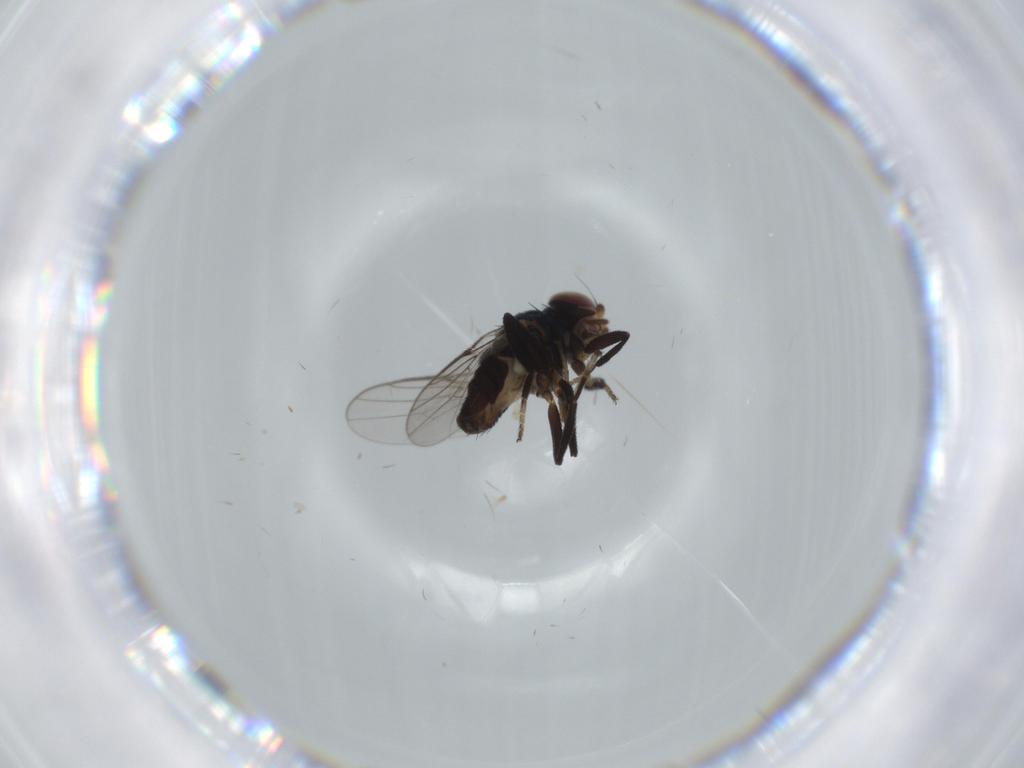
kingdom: Animalia
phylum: Arthropoda
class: Insecta
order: Diptera
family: Chloropidae
